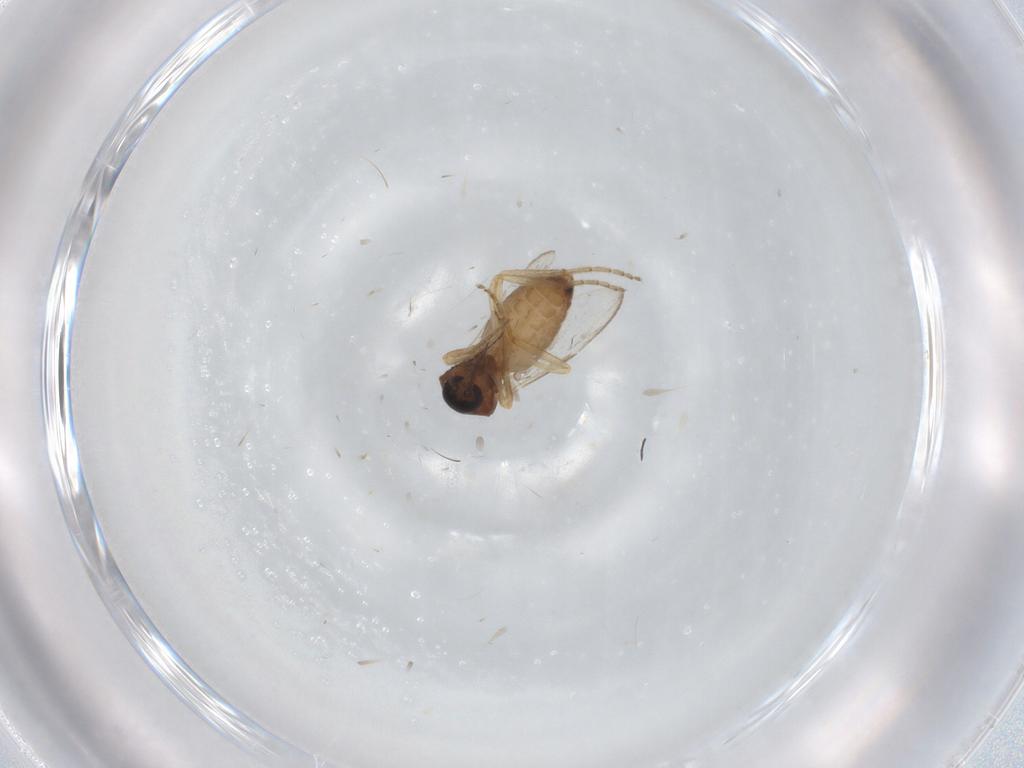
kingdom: Animalia
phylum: Arthropoda
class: Insecta
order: Diptera
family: Ceratopogonidae
